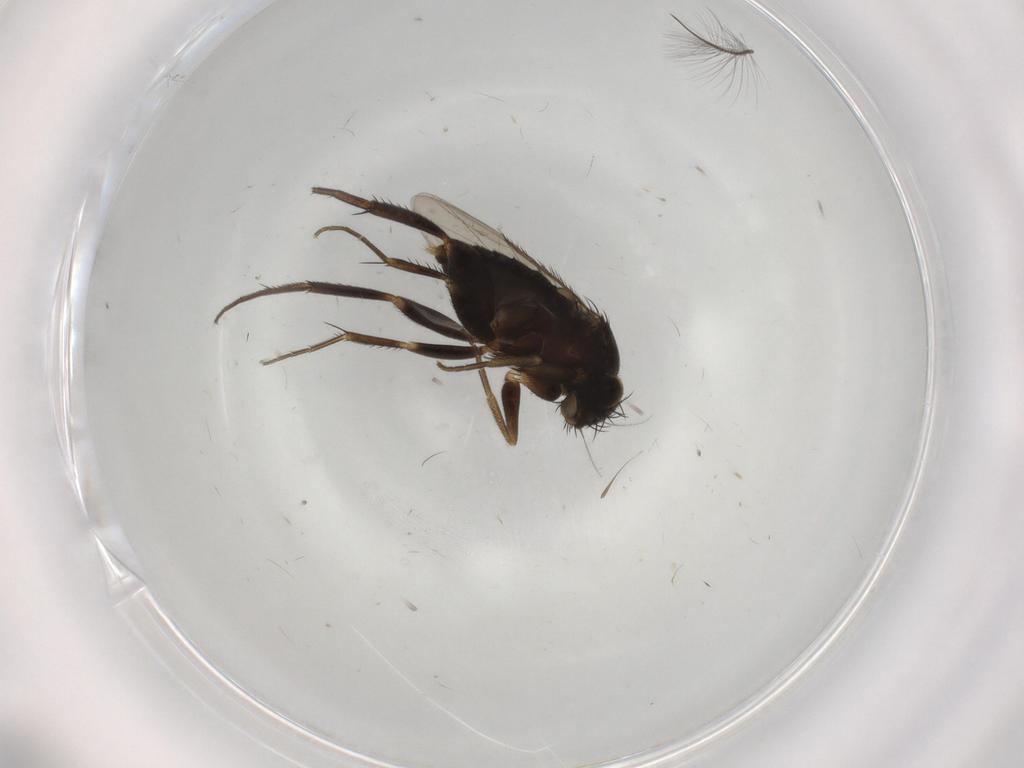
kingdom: Animalia
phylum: Arthropoda
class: Insecta
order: Diptera
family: Phoridae
